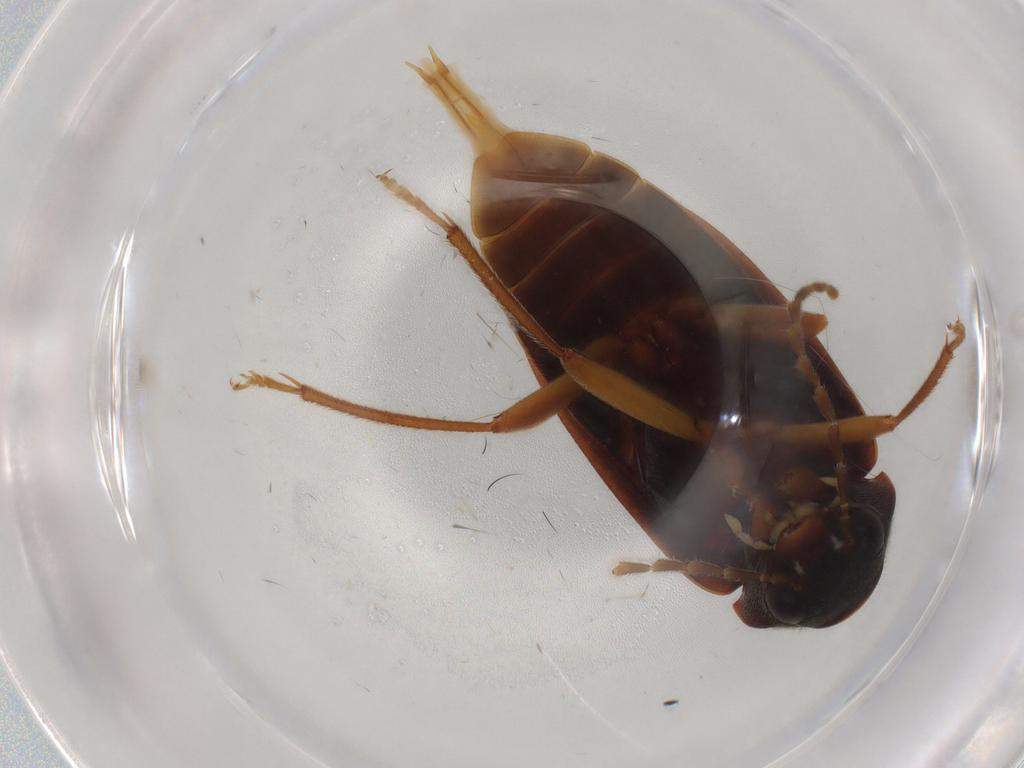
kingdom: Animalia
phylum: Arthropoda
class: Insecta
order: Coleoptera
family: Ptilodactylidae
